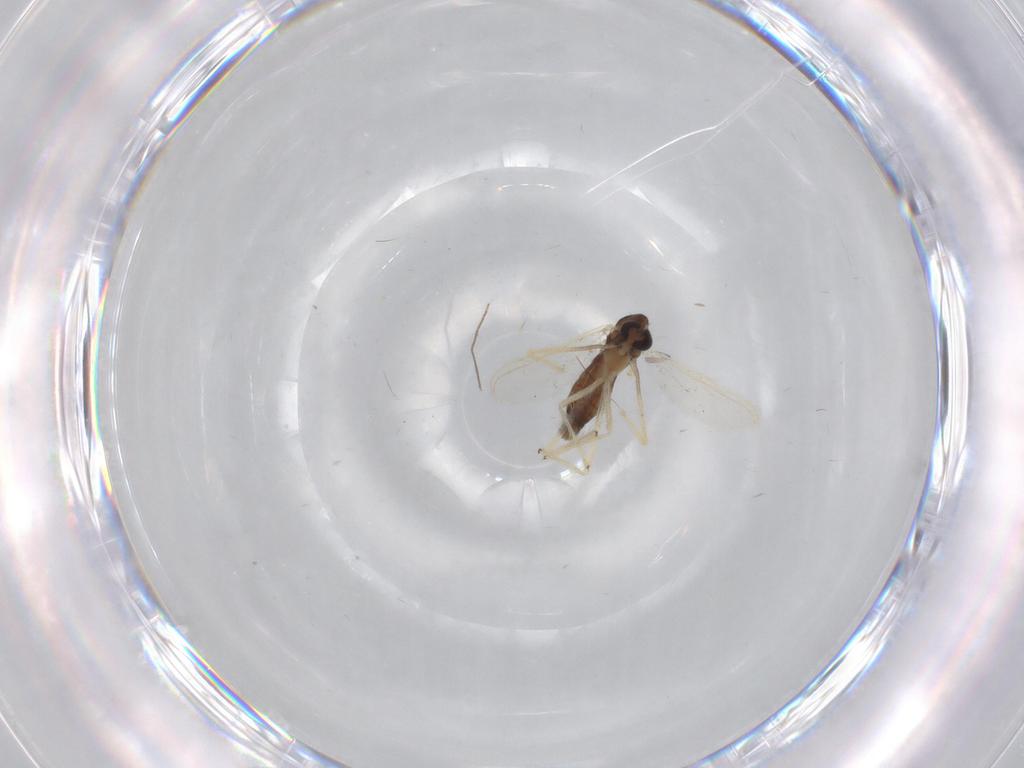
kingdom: Animalia
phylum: Arthropoda
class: Insecta
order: Diptera
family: Chironomidae
